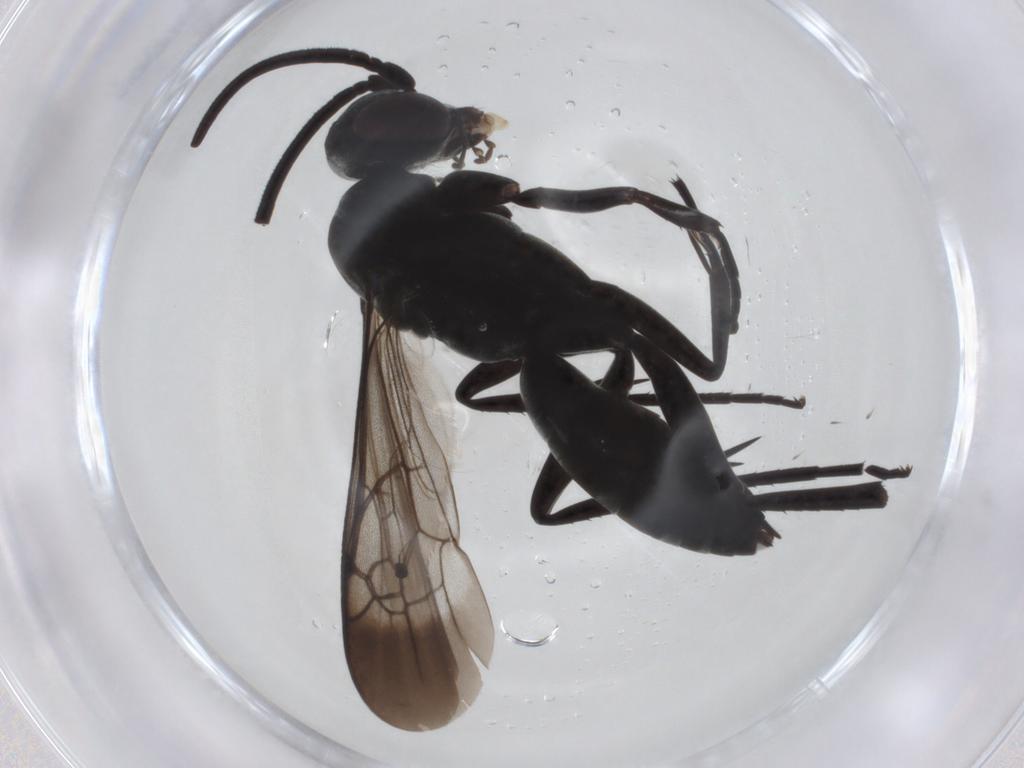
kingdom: Animalia
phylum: Arthropoda
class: Insecta
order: Hymenoptera
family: Pompilidae
